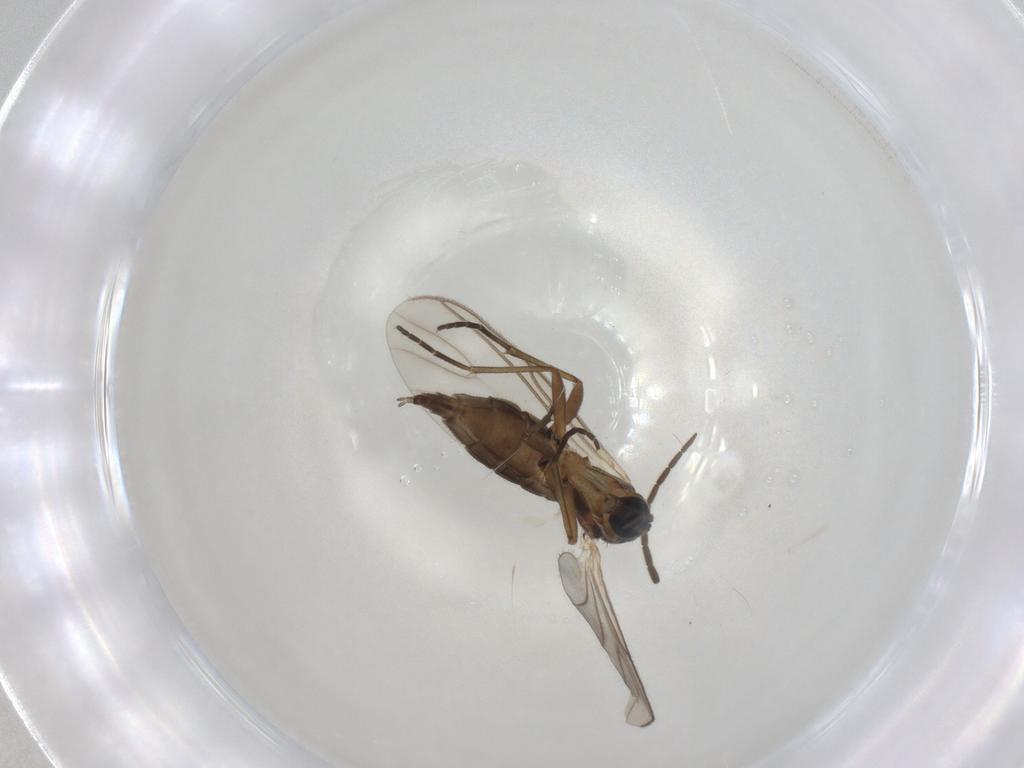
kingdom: Animalia
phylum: Arthropoda
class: Insecta
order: Diptera
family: Mycetophilidae
